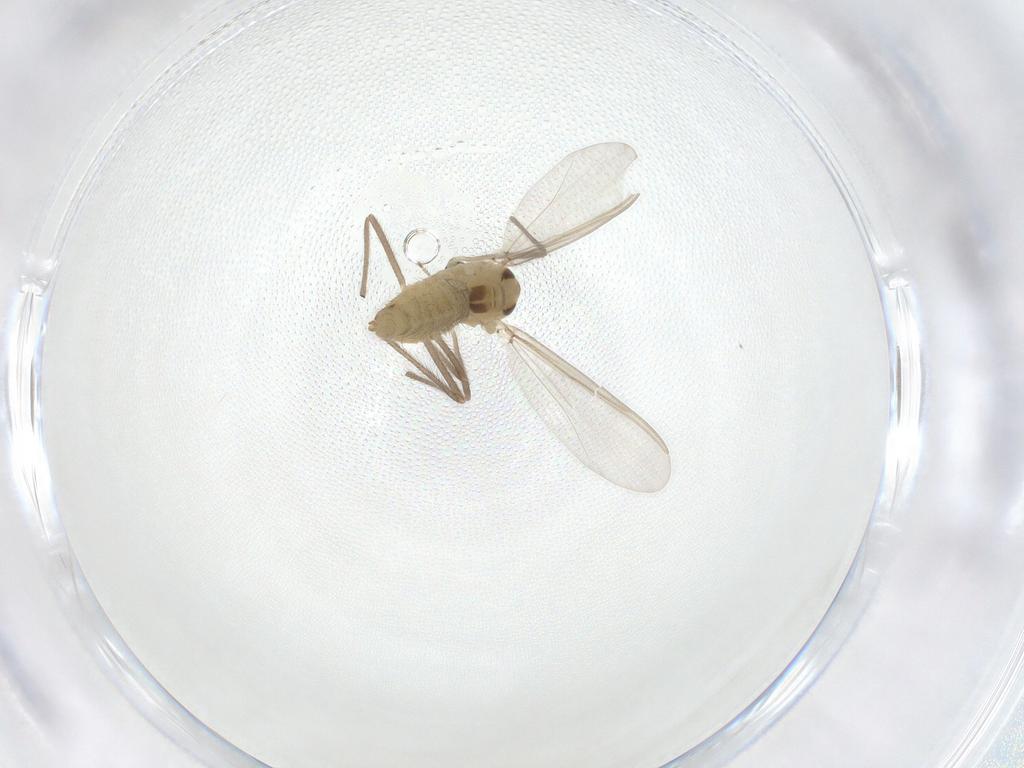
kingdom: Animalia
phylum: Arthropoda
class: Insecta
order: Diptera
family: Chironomidae
